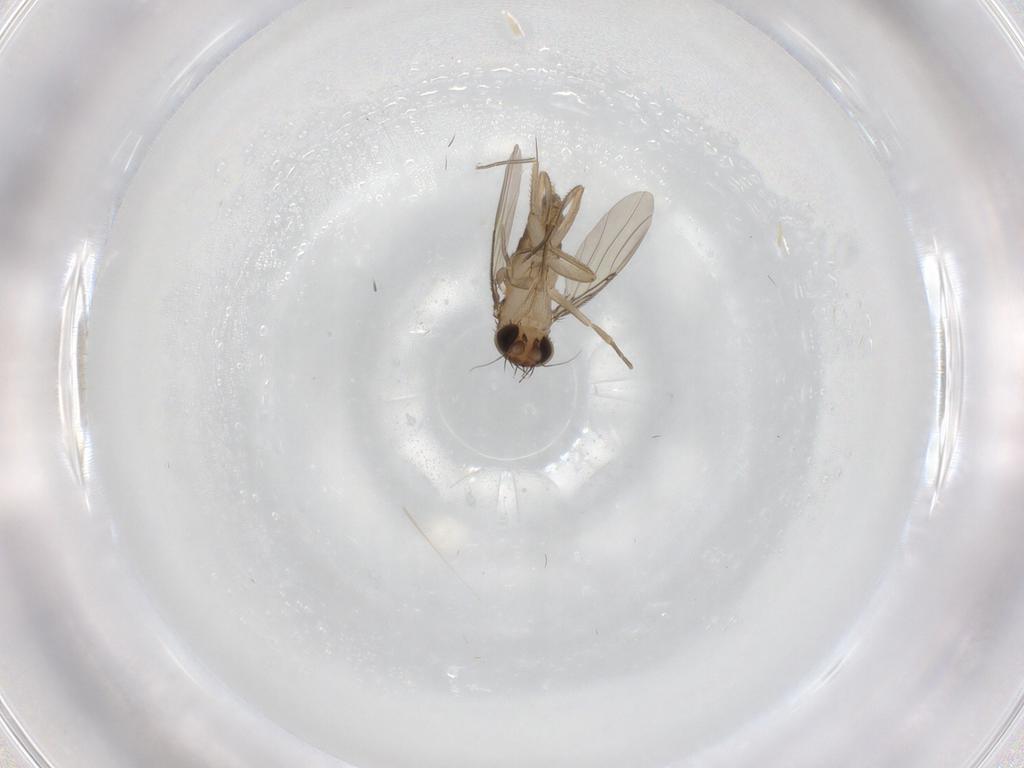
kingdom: Animalia
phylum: Arthropoda
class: Insecta
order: Diptera
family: Phoridae
